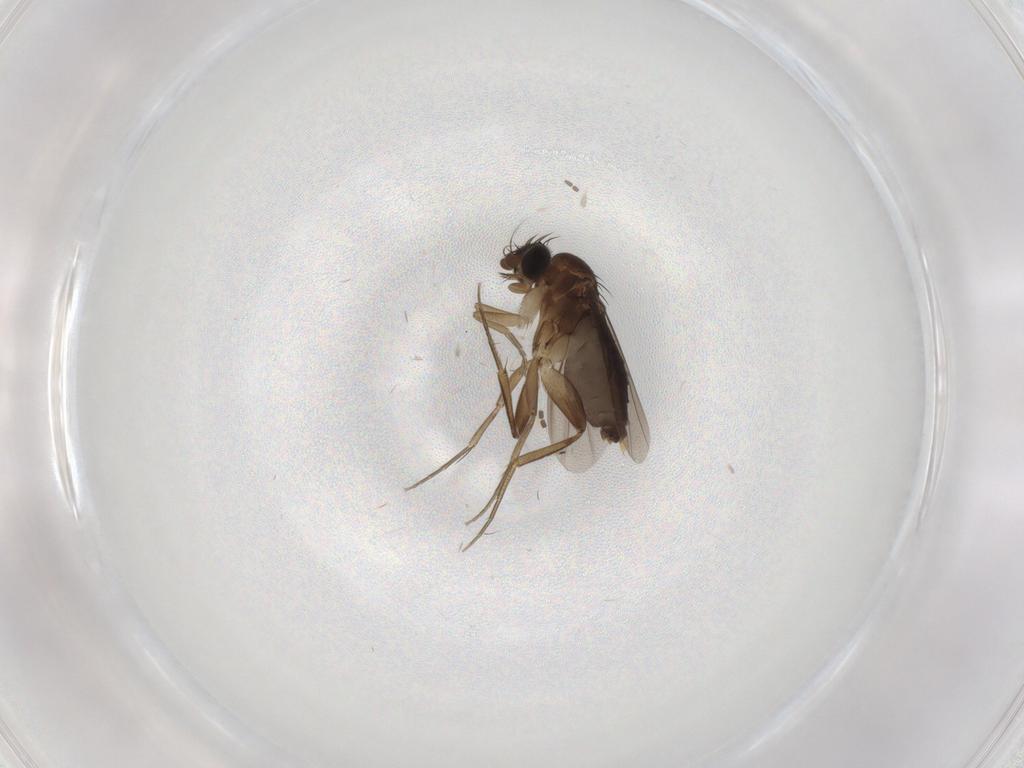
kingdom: Animalia
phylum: Arthropoda
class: Insecta
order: Diptera
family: Phoridae
